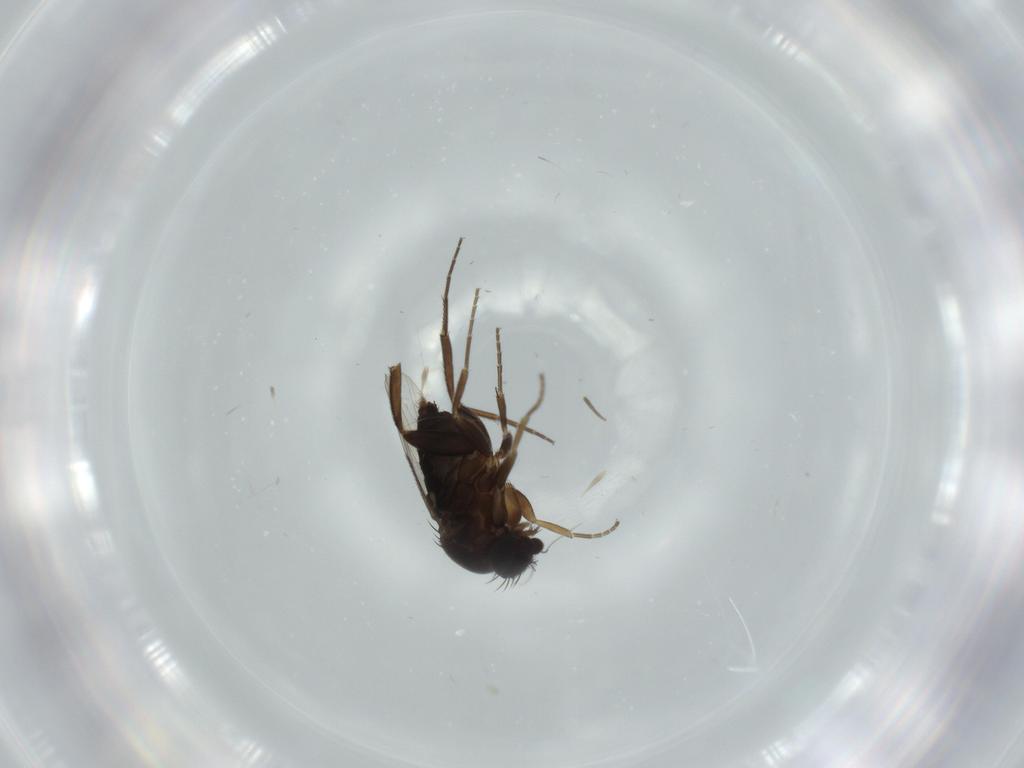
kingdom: Animalia
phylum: Arthropoda
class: Insecta
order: Diptera
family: Phoridae
